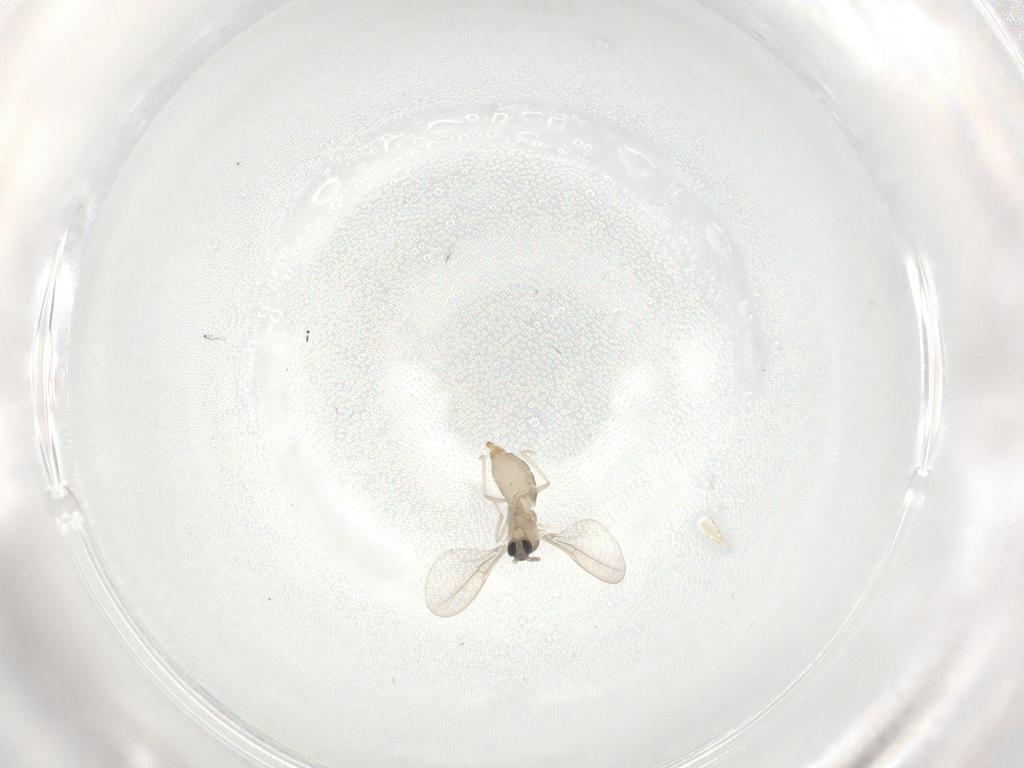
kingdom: Animalia
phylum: Arthropoda
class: Insecta
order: Diptera
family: Cecidomyiidae
